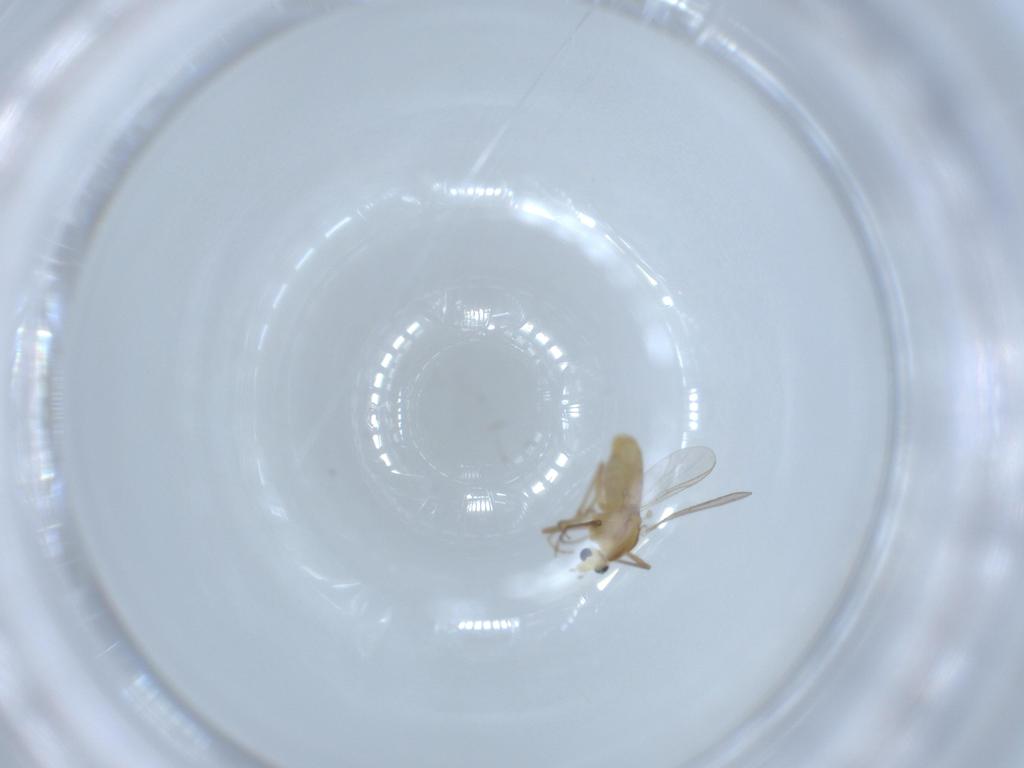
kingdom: Animalia
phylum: Arthropoda
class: Insecta
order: Diptera
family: Chironomidae
